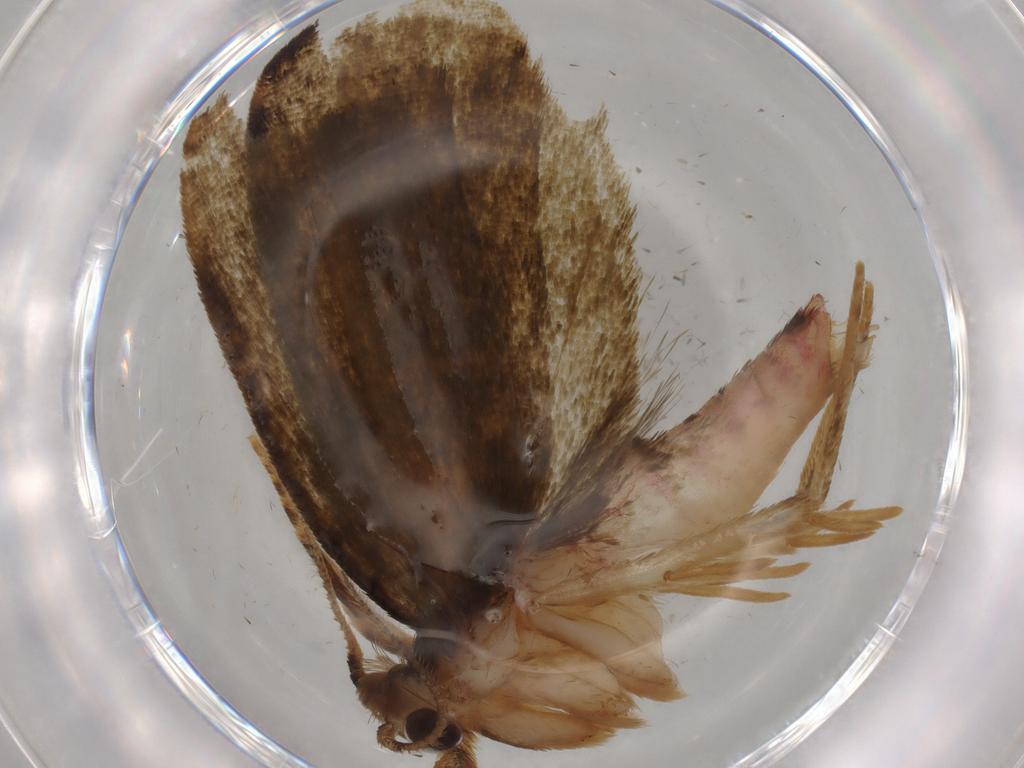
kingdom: Animalia
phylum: Arthropoda
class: Insecta
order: Lepidoptera
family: Geometridae
